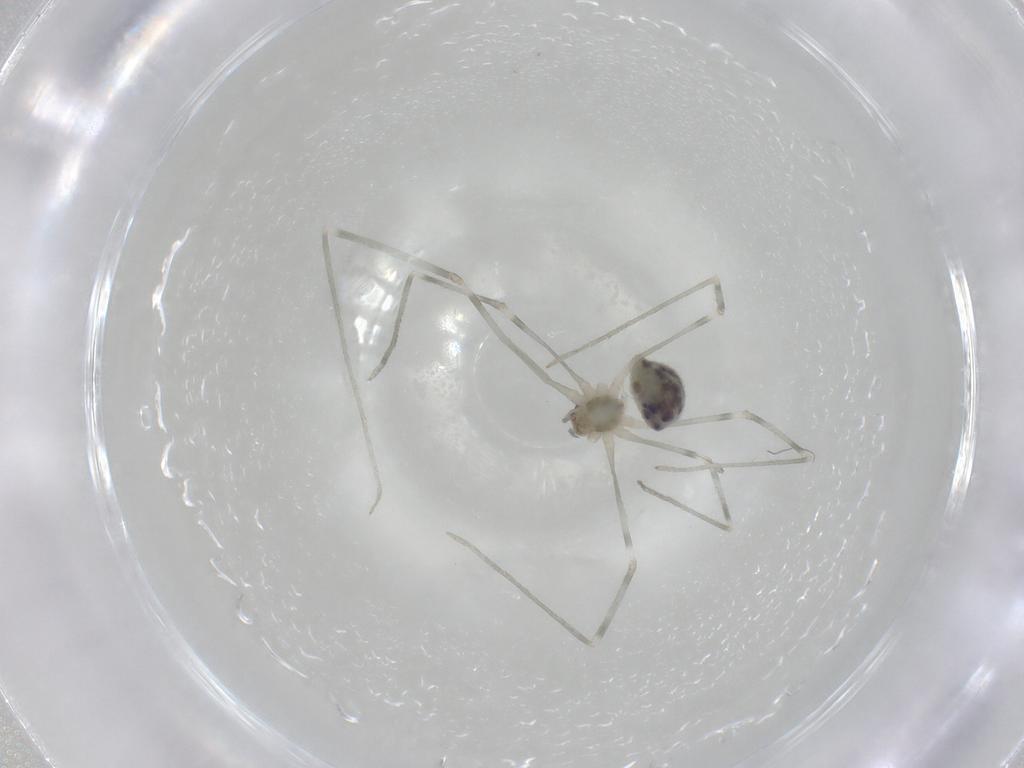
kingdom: Animalia
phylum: Arthropoda
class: Arachnida
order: Araneae
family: Pholcidae
